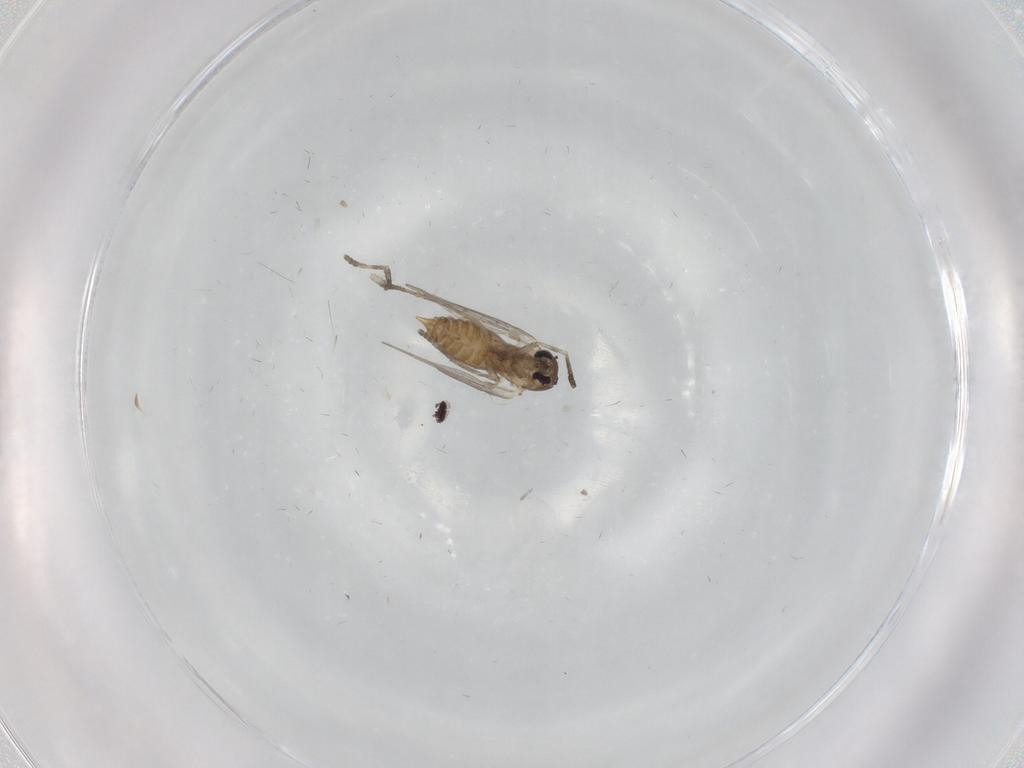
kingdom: Animalia
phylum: Arthropoda
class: Insecta
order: Diptera
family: Psychodidae
